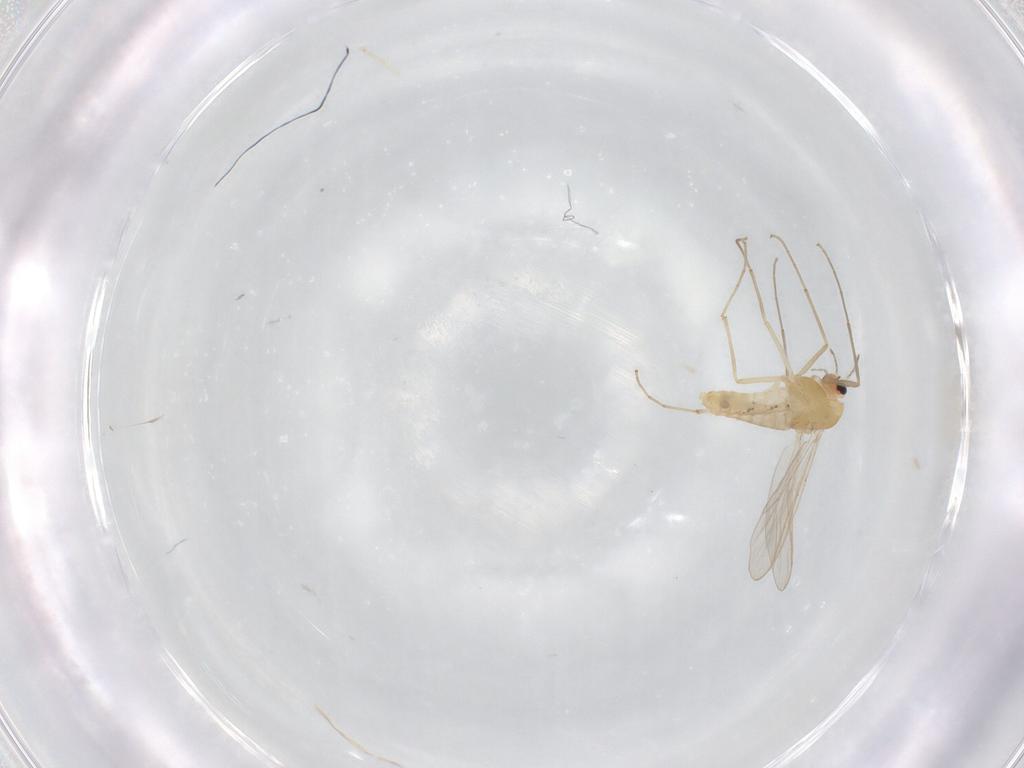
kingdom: Animalia
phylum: Arthropoda
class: Insecta
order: Diptera
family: Chironomidae
